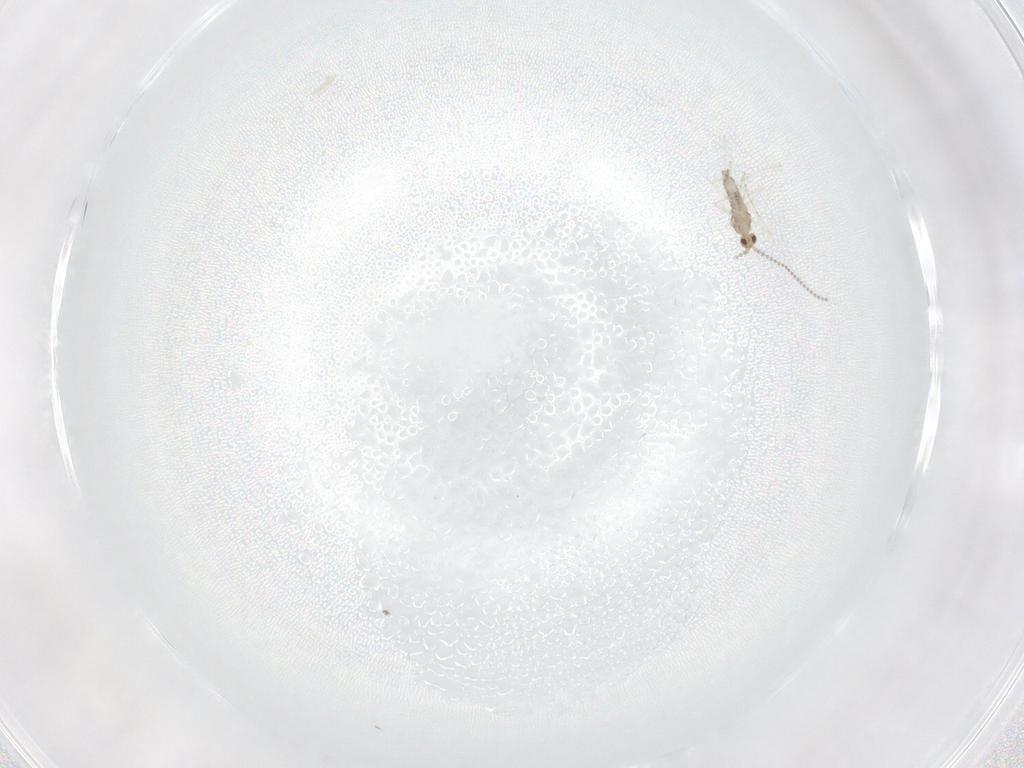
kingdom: Animalia
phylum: Arthropoda
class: Insecta
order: Diptera
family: Cecidomyiidae
